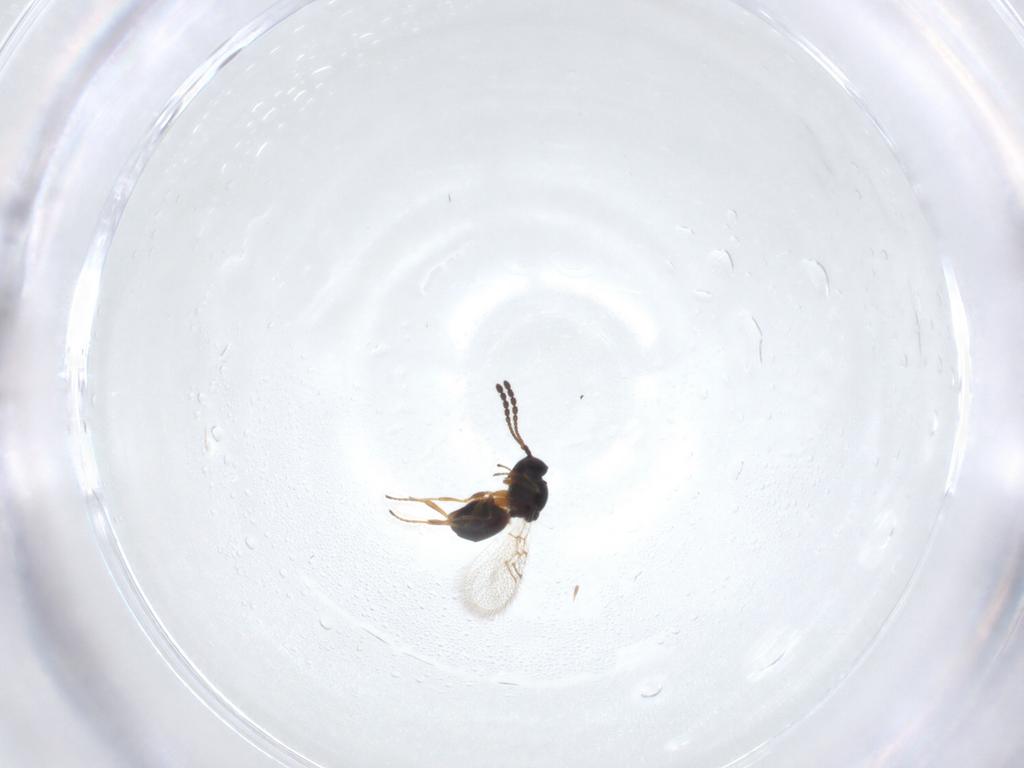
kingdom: Animalia
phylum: Arthropoda
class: Insecta
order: Hymenoptera
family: Figitidae
